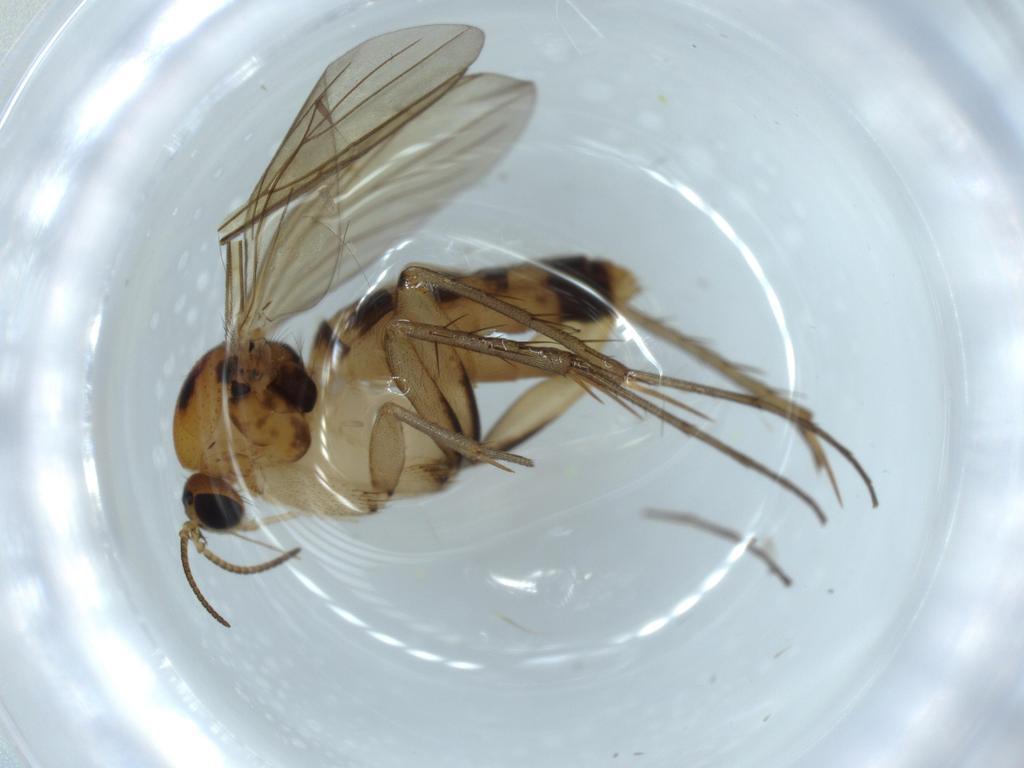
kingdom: Animalia
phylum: Arthropoda
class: Insecta
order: Diptera
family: Mycetophilidae
